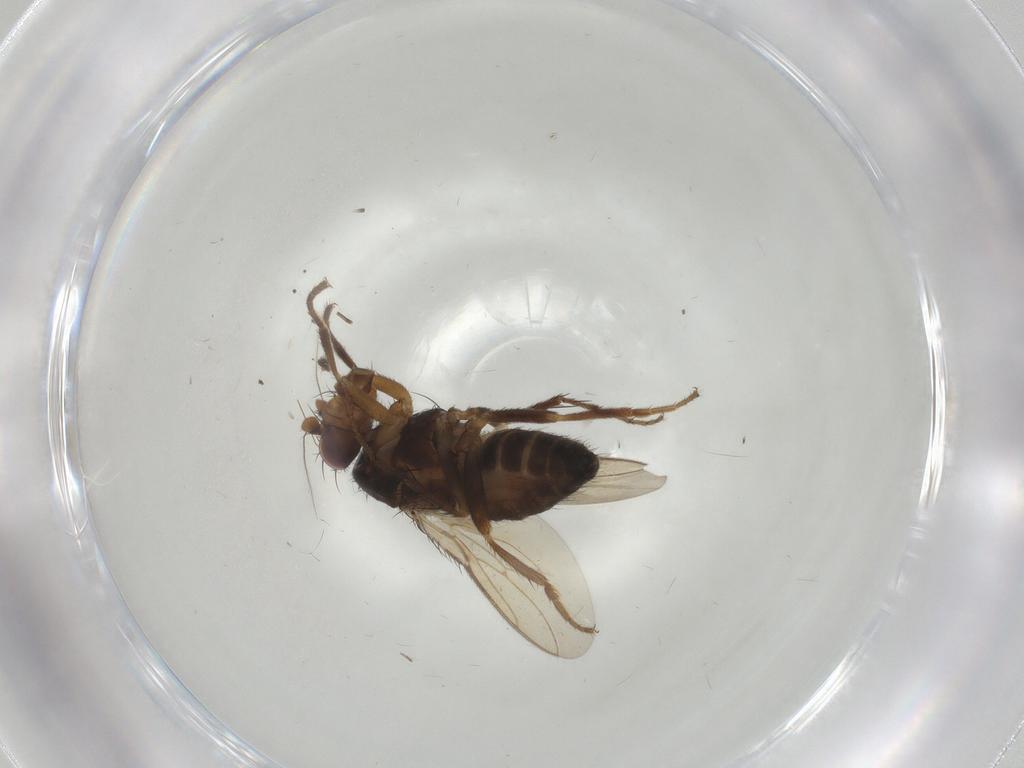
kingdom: Animalia
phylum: Arthropoda
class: Insecta
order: Diptera
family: Sphaeroceridae
